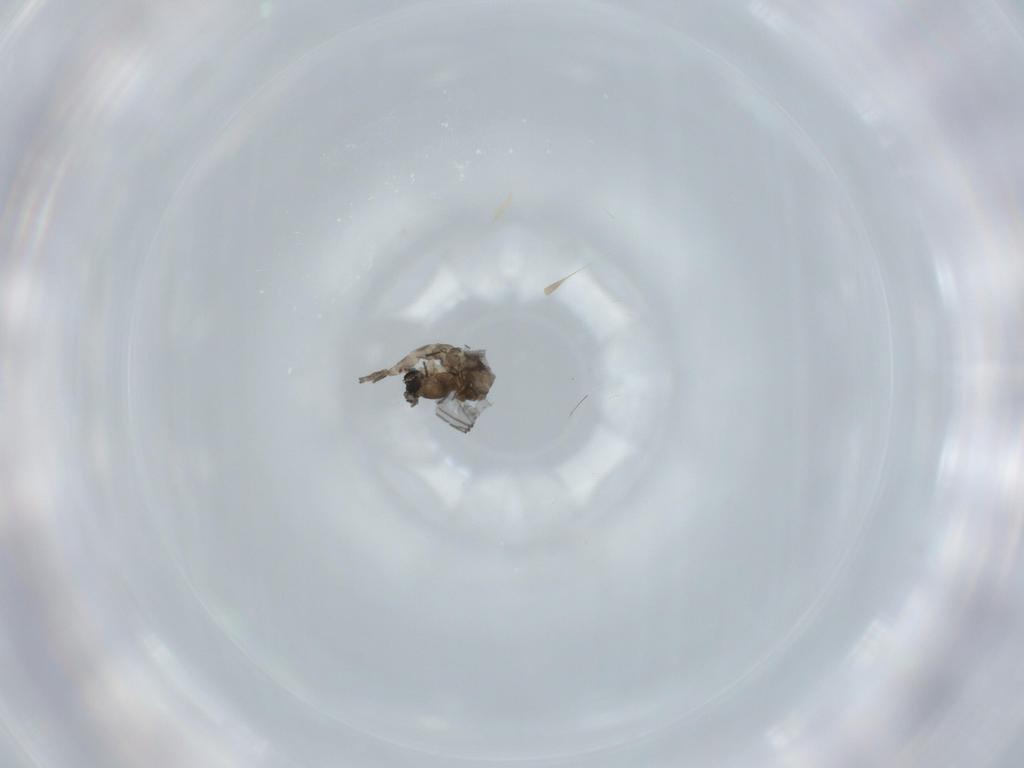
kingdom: Animalia
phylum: Arthropoda
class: Insecta
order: Diptera
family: Sciaridae
